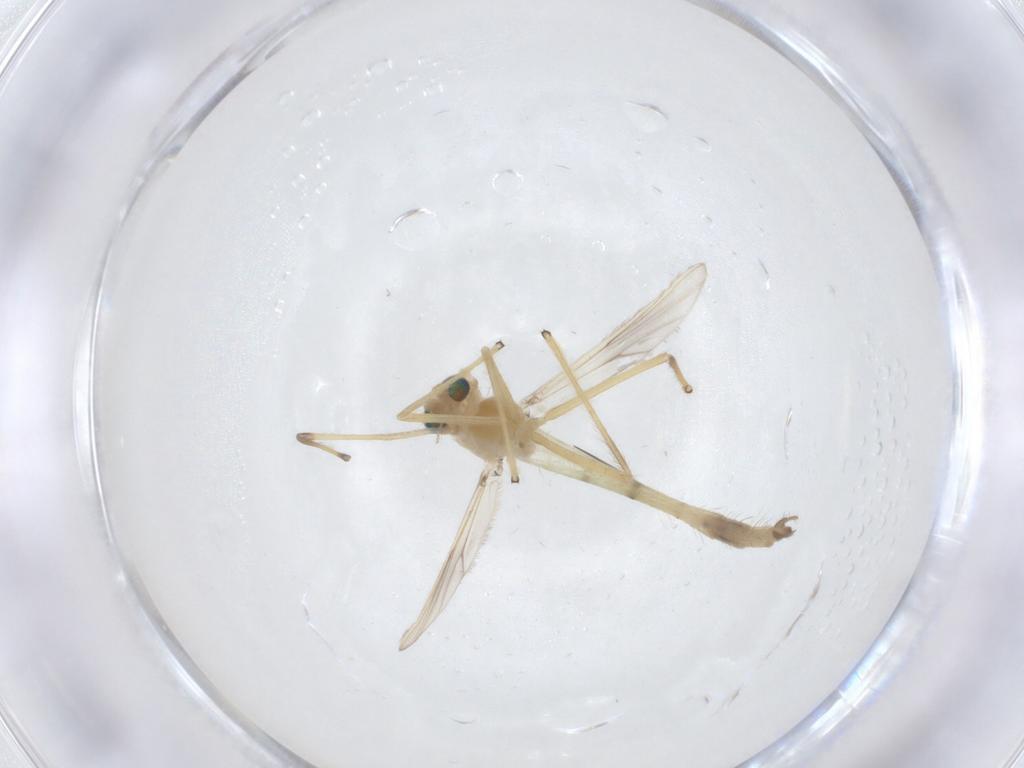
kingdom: Animalia
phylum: Arthropoda
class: Insecta
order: Diptera
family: Chironomidae
